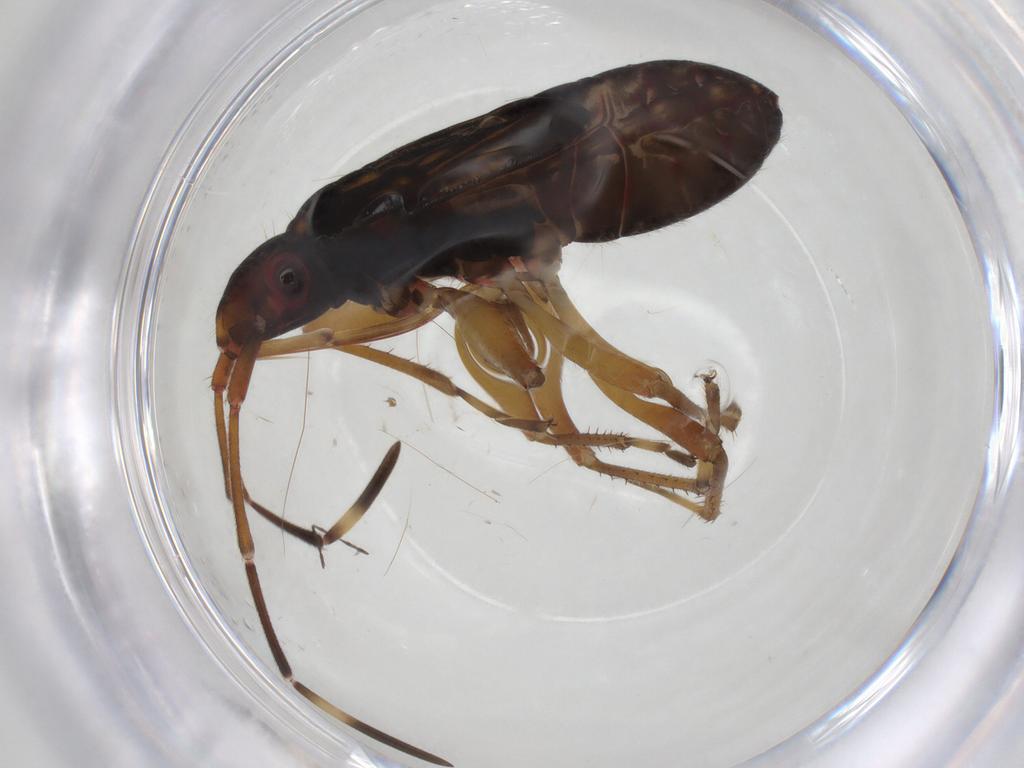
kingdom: Animalia
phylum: Arthropoda
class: Insecta
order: Hemiptera
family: Rhyparochromidae
